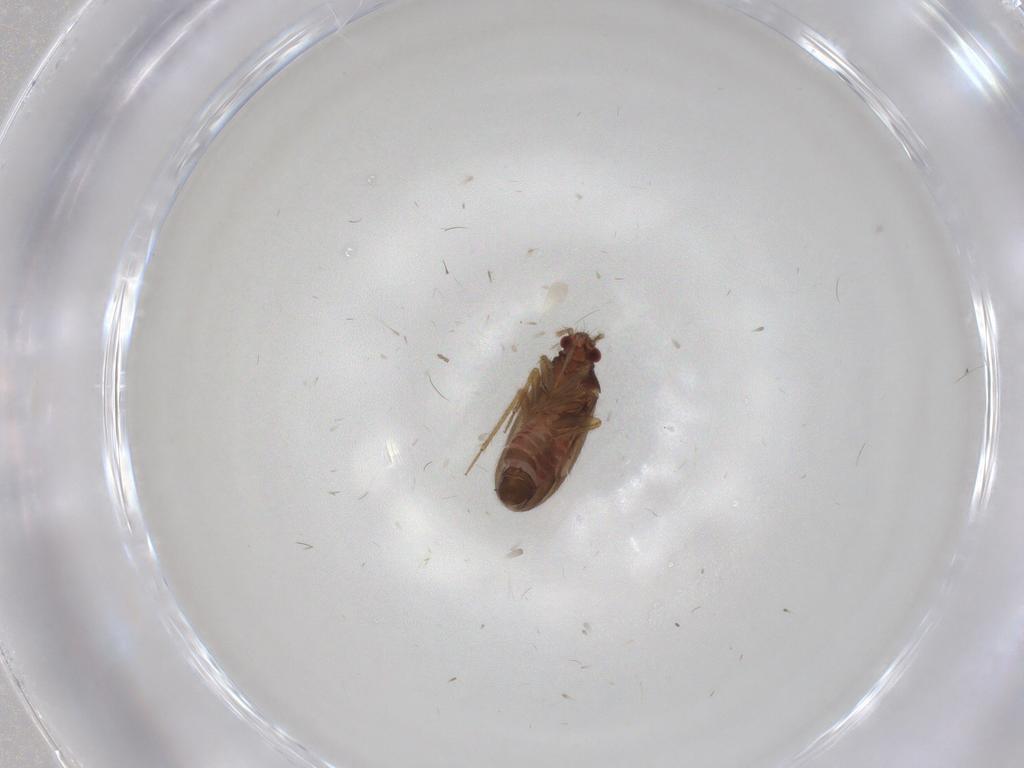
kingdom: Animalia
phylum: Arthropoda
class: Insecta
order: Hemiptera
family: Ceratocombidae
